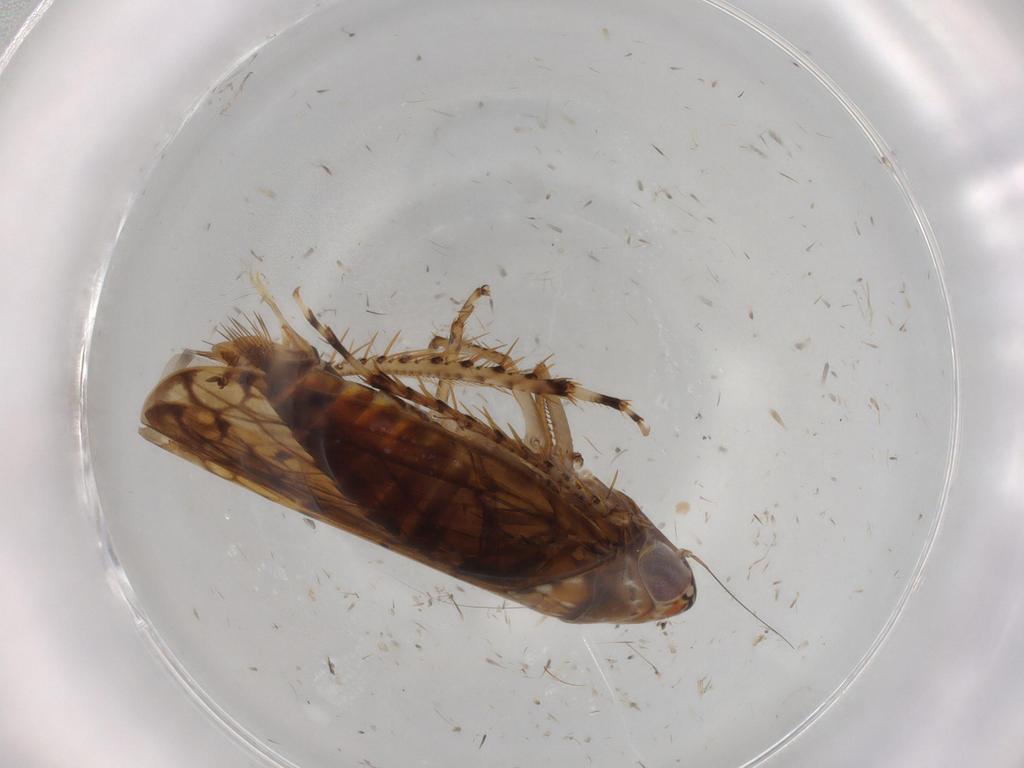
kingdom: Animalia
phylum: Arthropoda
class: Insecta
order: Hemiptera
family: Cicadellidae
